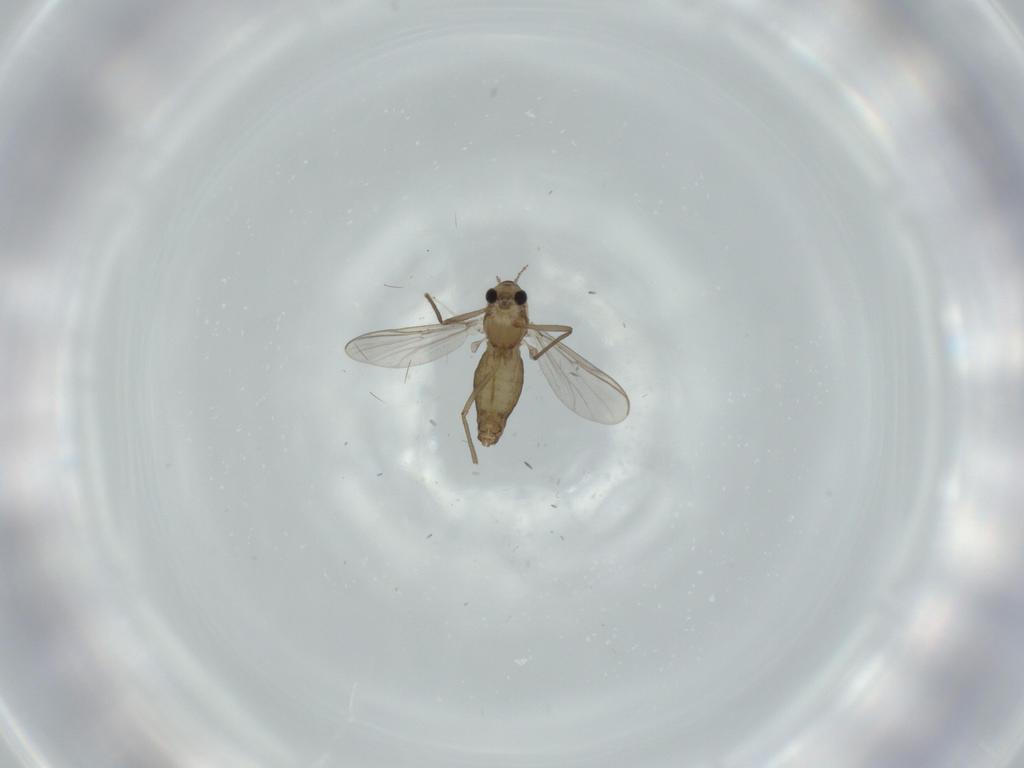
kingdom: Animalia
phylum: Arthropoda
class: Insecta
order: Diptera
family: Chironomidae
